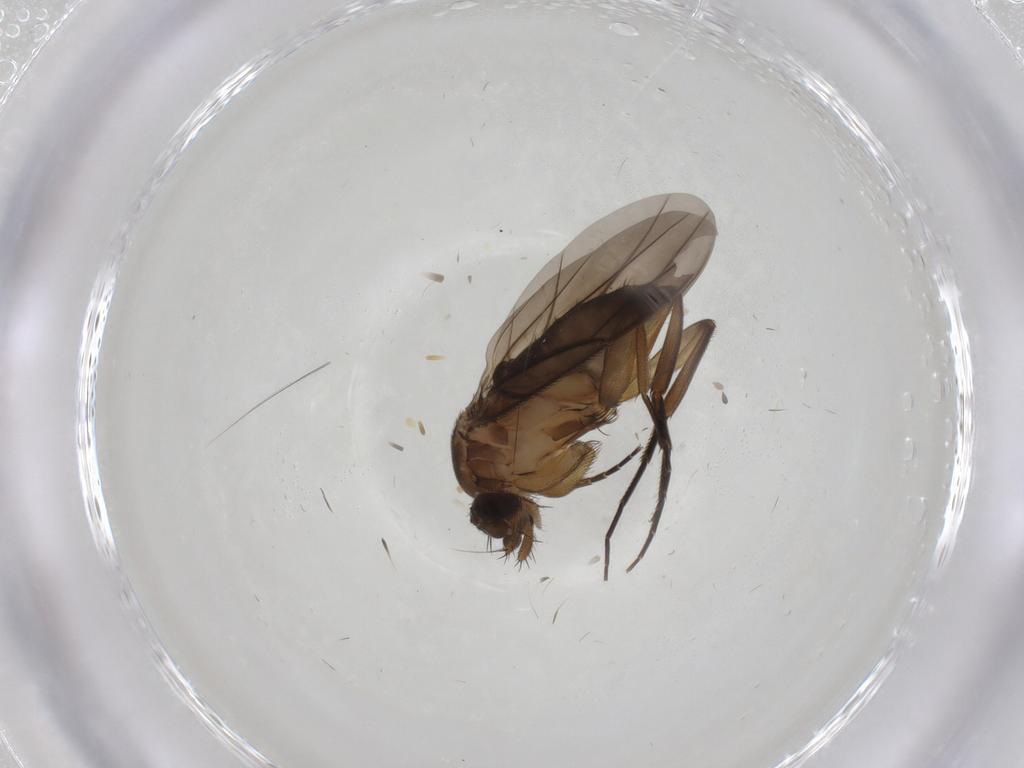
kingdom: Animalia
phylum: Arthropoda
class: Insecta
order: Diptera
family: Phoridae
